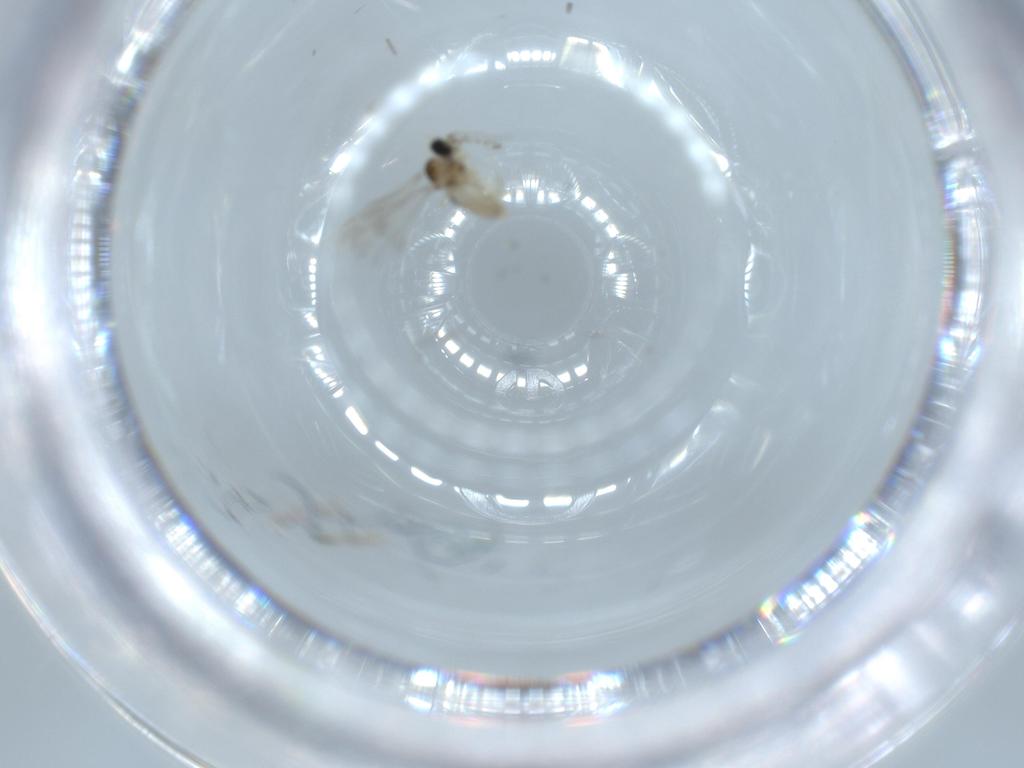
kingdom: Animalia
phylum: Arthropoda
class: Insecta
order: Diptera
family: Cecidomyiidae
